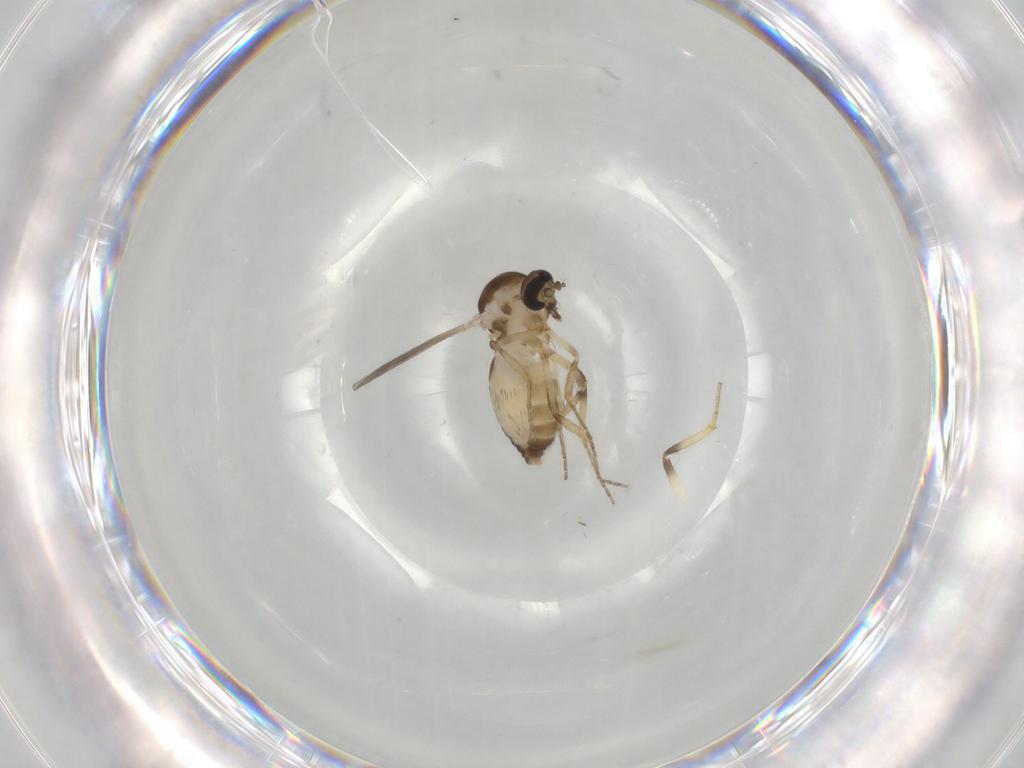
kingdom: Animalia
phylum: Arthropoda
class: Insecta
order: Diptera
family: Ceratopogonidae
